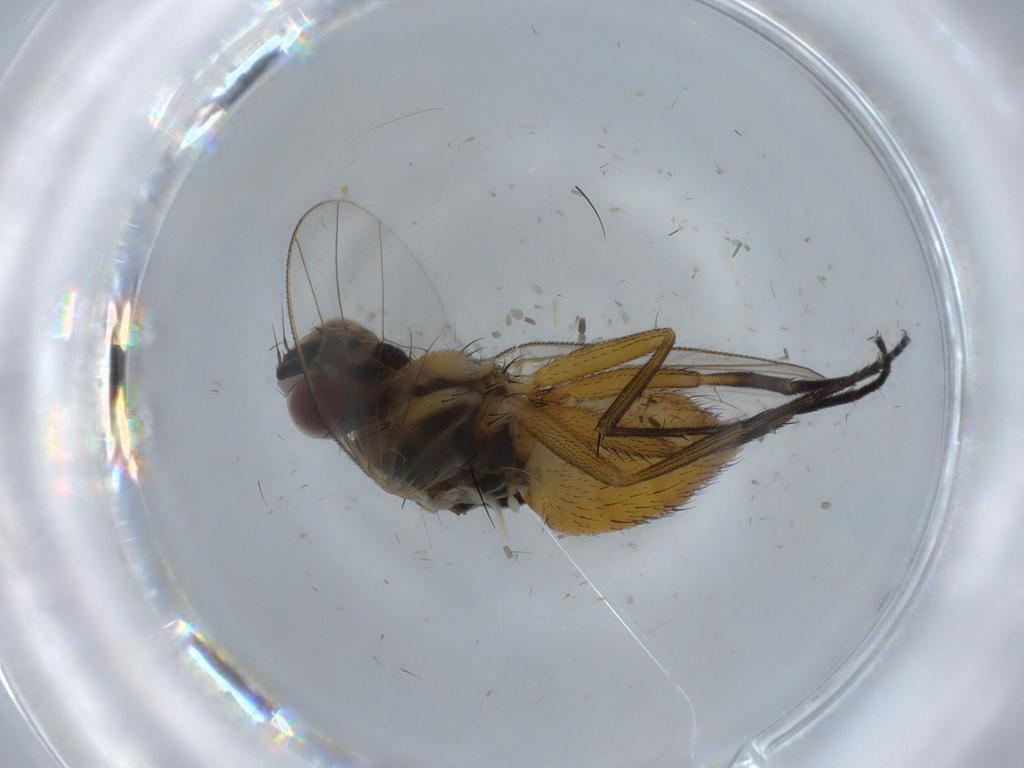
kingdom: Animalia
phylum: Arthropoda
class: Insecta
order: Diptera
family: Muscidae
